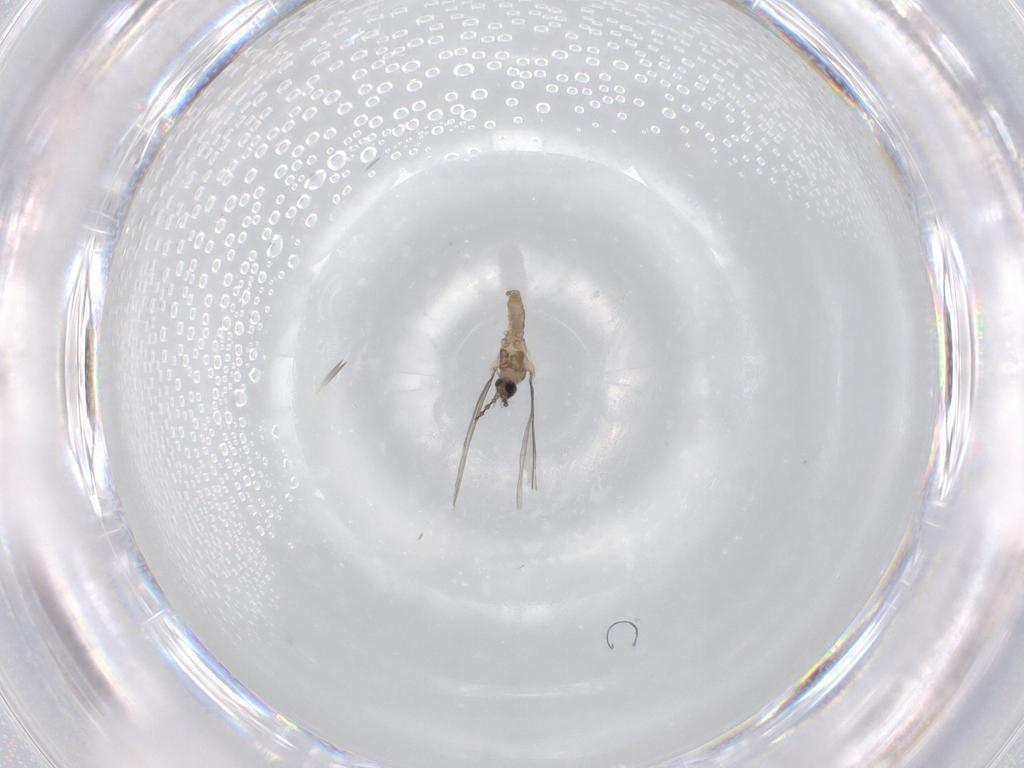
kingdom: Animalia
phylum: Arthropoda
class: Insecta
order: Diptera
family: Cecidomyiidae
